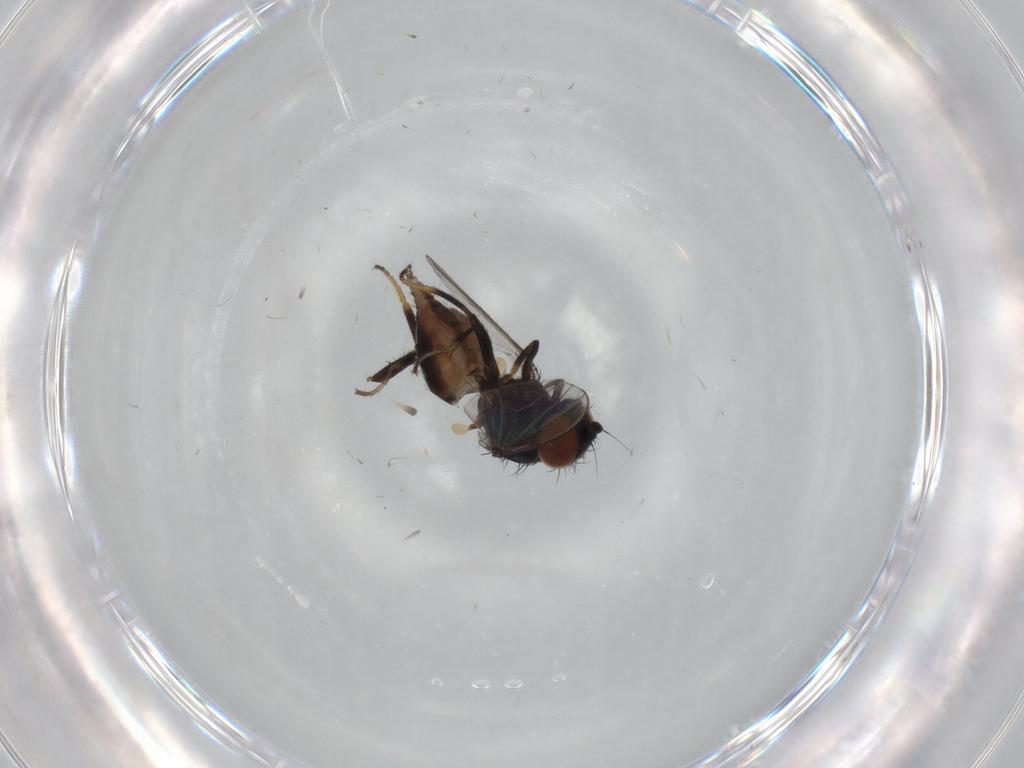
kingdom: Animalia
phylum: Arthropoda
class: Insecta
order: Diptera
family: Milichiidae
